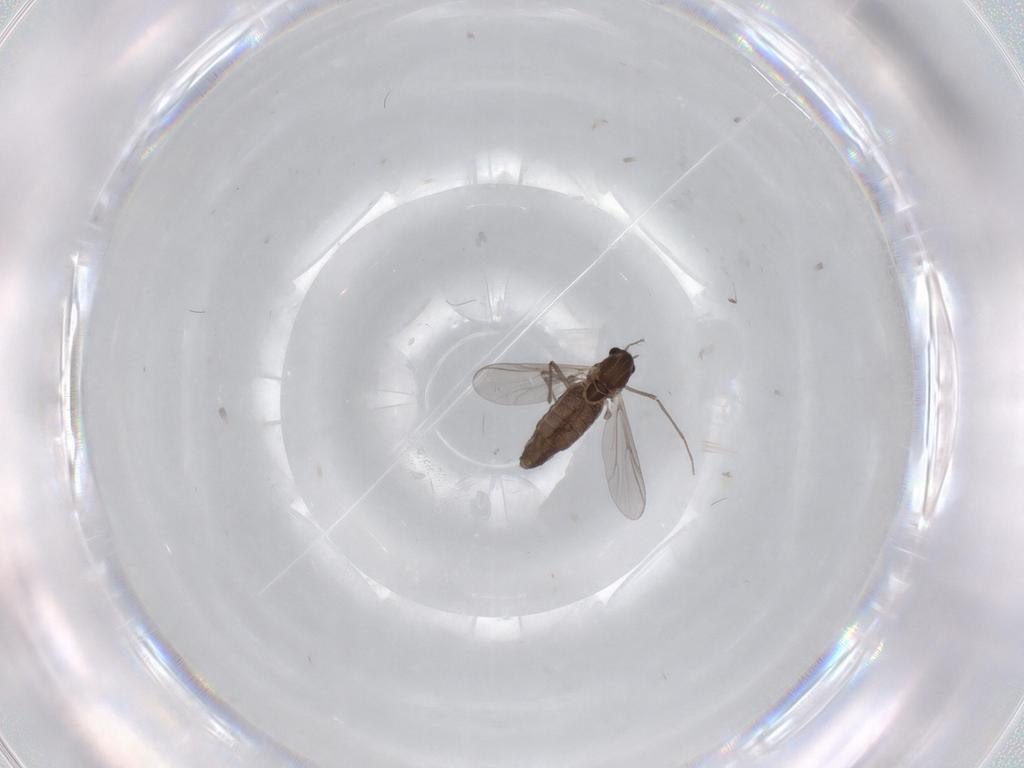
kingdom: Animalia
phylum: Arthropoda
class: Insecta
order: Diptera
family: Chironomidae
